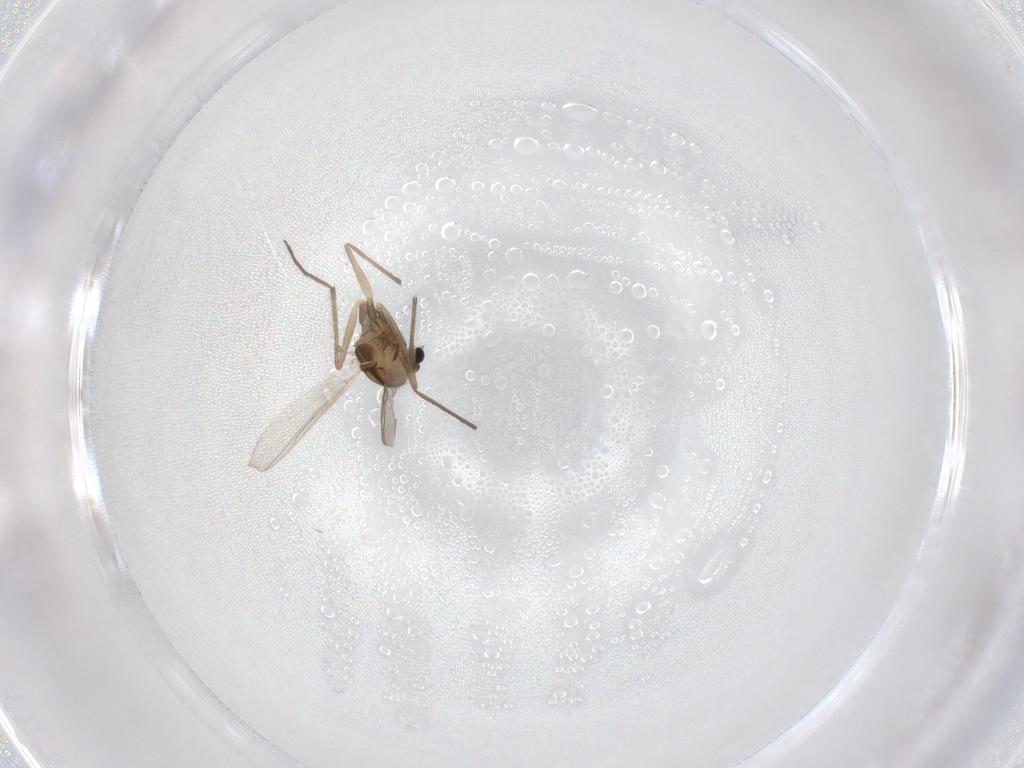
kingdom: Animalia
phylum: Arthropoda
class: Insecta
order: Diptera
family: Chironomidae
